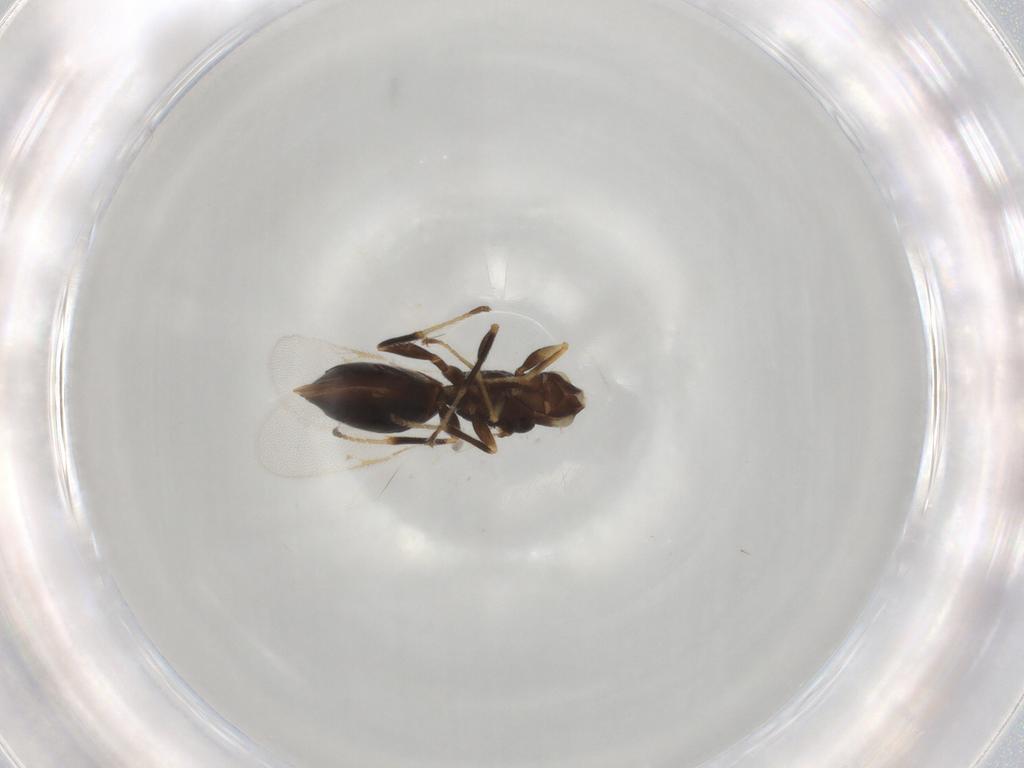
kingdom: Animalia
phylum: Arthropoda
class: Insecta
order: Hymenoptera
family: Eurytomidae
